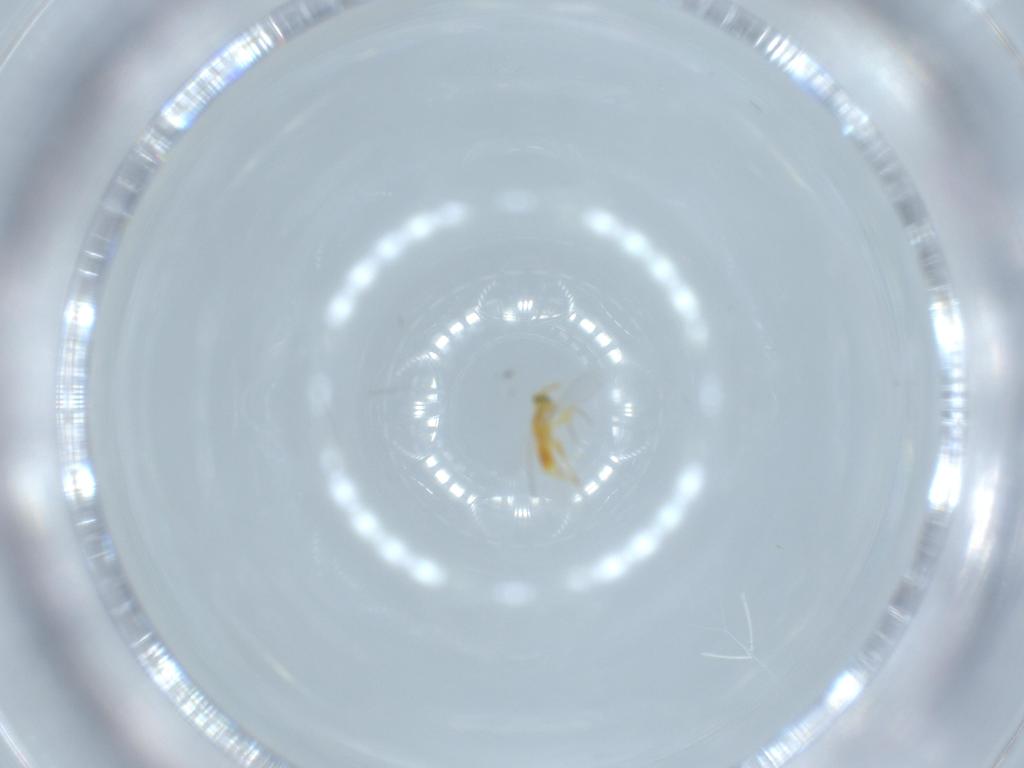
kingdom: Animalia
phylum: Arthropoda
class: Insecta
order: Hymenoptera
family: Aphelinidae
